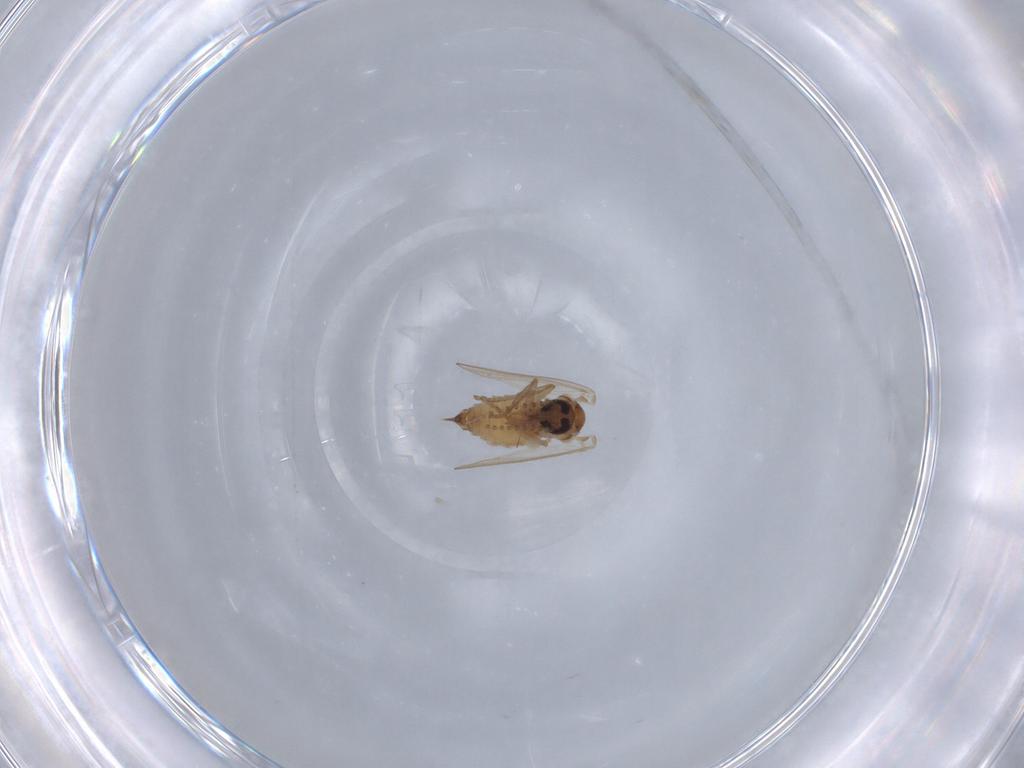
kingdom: Animalia
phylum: Arthropoda
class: Insecta
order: Diptera
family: Psychodidae
